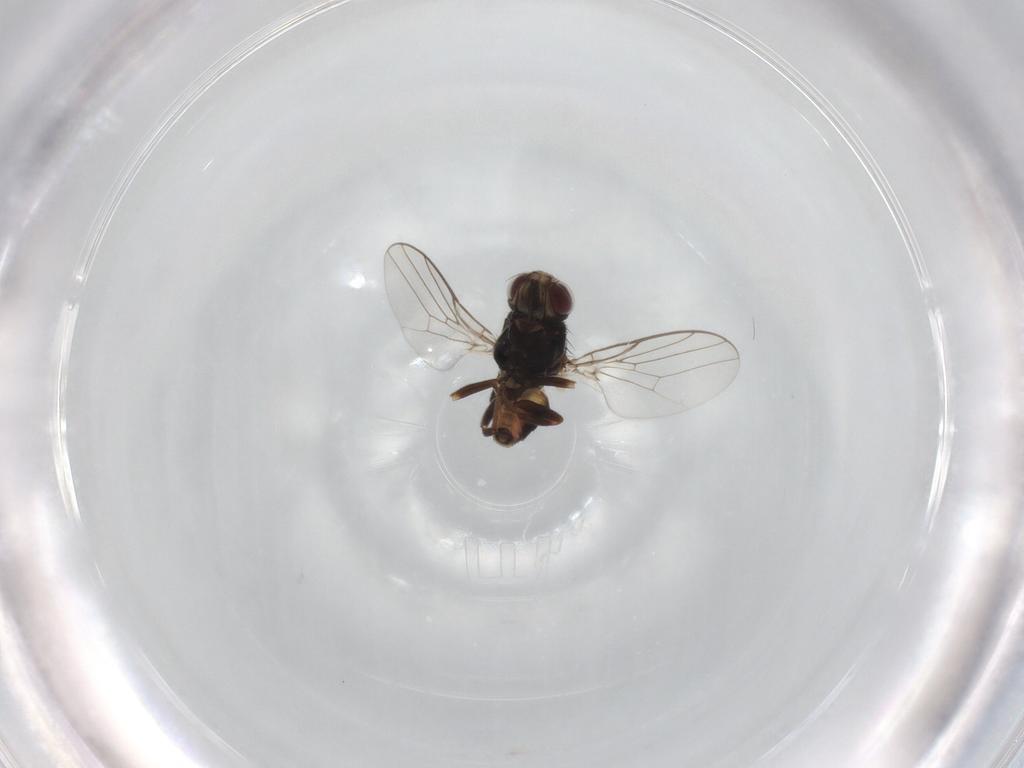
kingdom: Animalia
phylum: Arthropoda
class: Insecta
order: Diptera
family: Chloropidae
